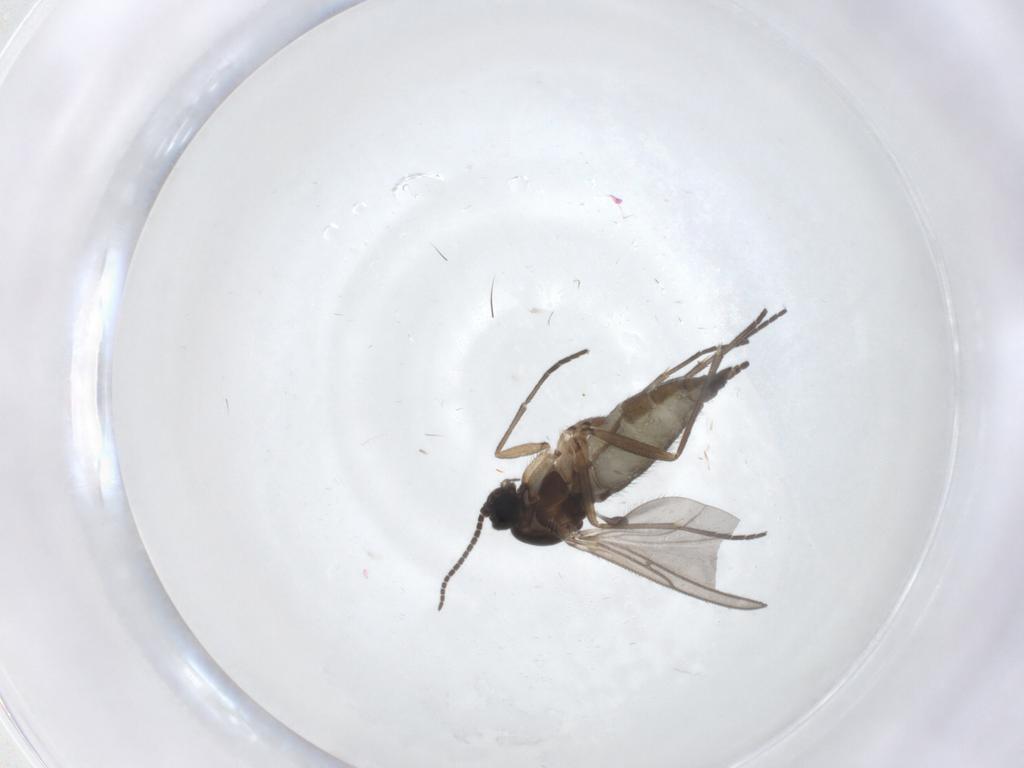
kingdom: Animalia
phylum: Arthropoda
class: Insecta
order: Diptera
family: Sciaridae
